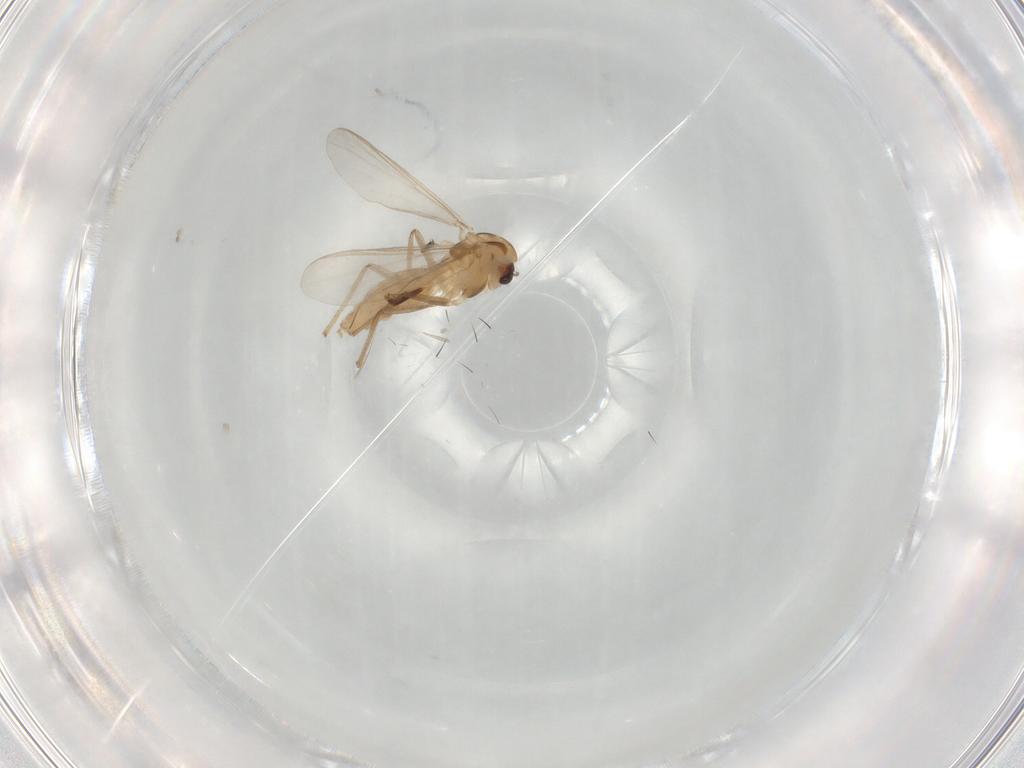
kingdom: Animalia
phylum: Arthropoda
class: Insecta
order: Diptera
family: Chironomidae
